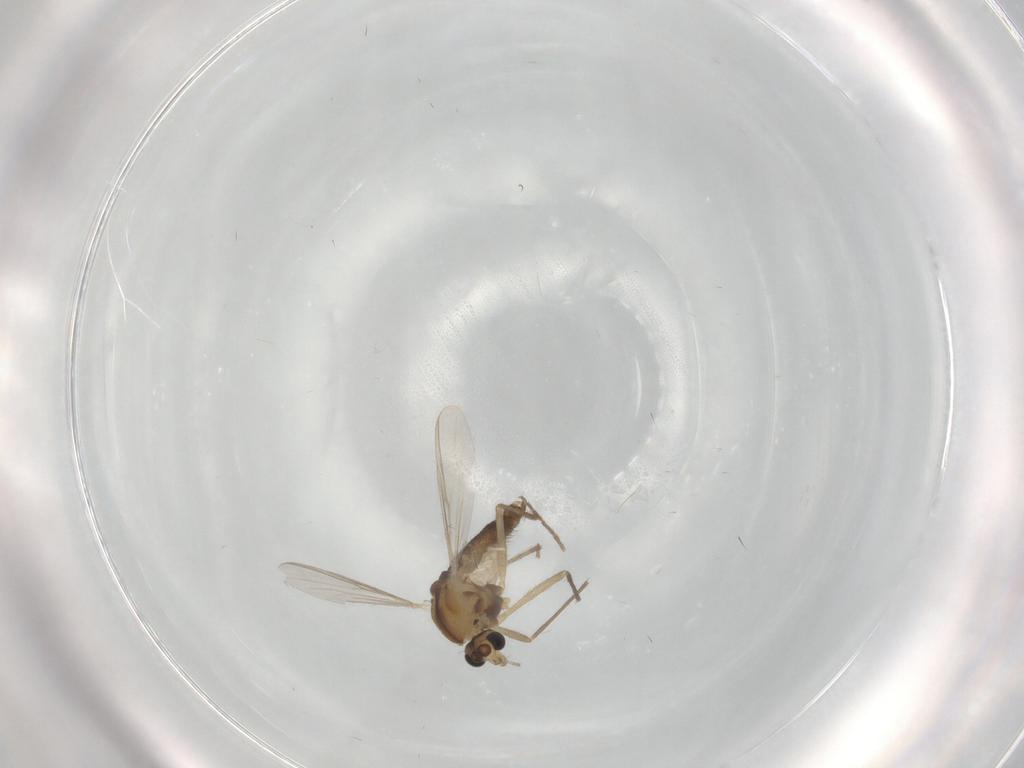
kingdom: Animalia
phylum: Arthropoda
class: Insecta
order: Diptera
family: Chironomidae
